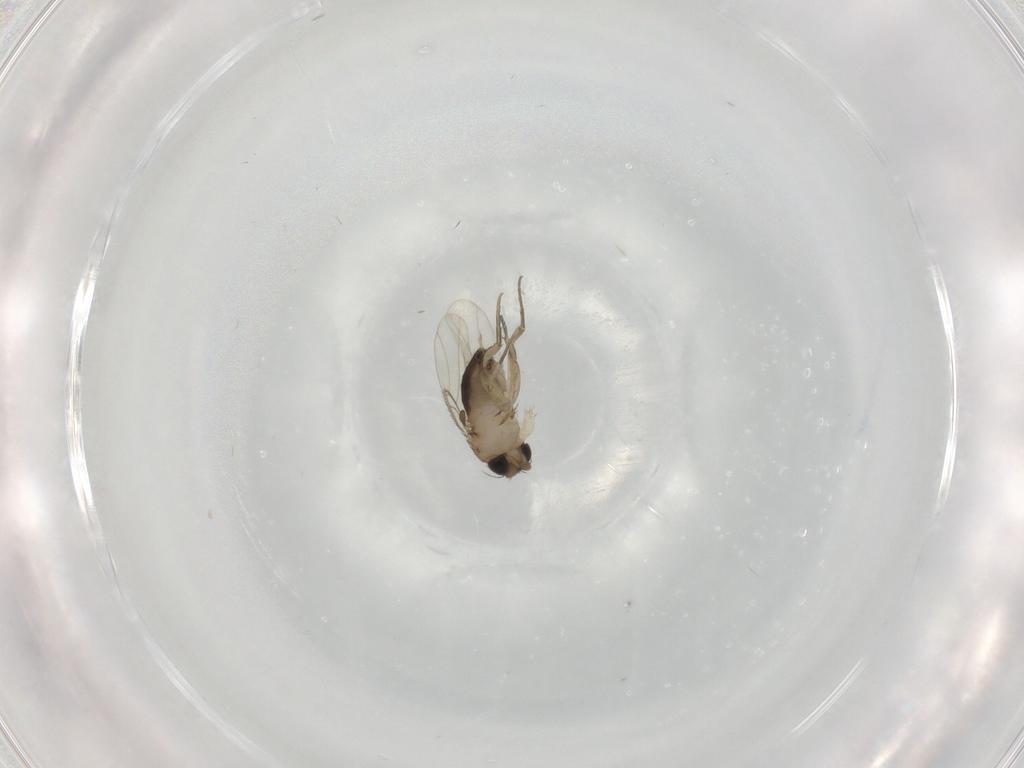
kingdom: Animalia
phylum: Arthropoda
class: Insecta
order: Diptera
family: Phoridae
